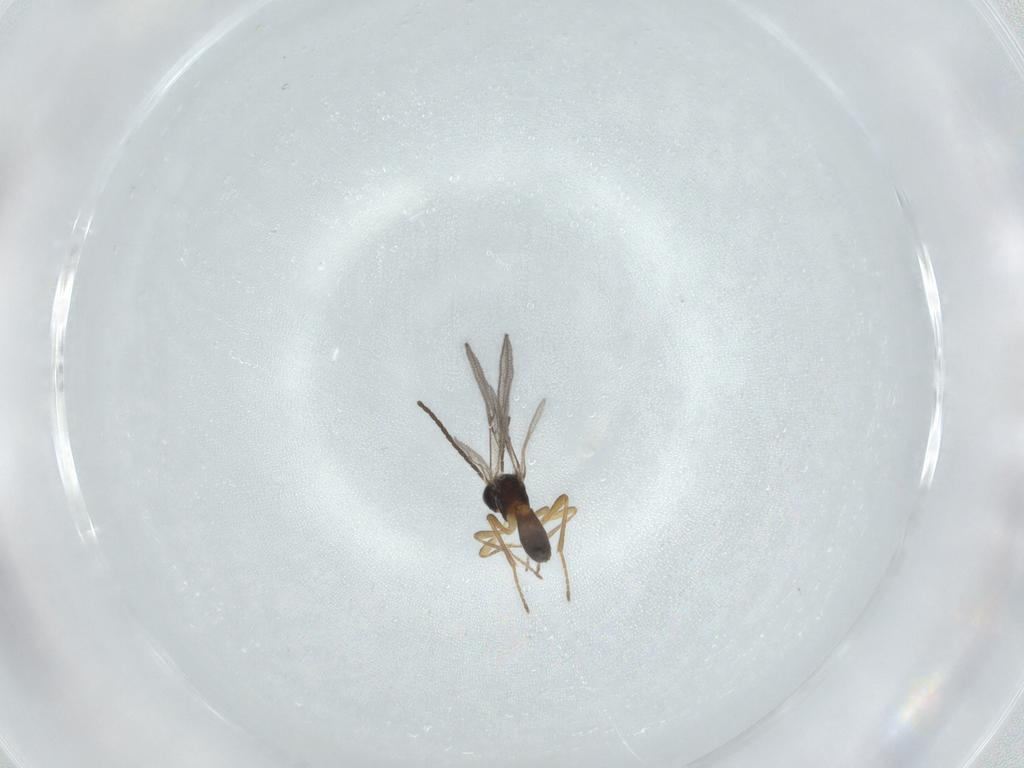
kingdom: Animalia
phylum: Arthropoda
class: Insecta
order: Hymenoptera
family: Braconidae
